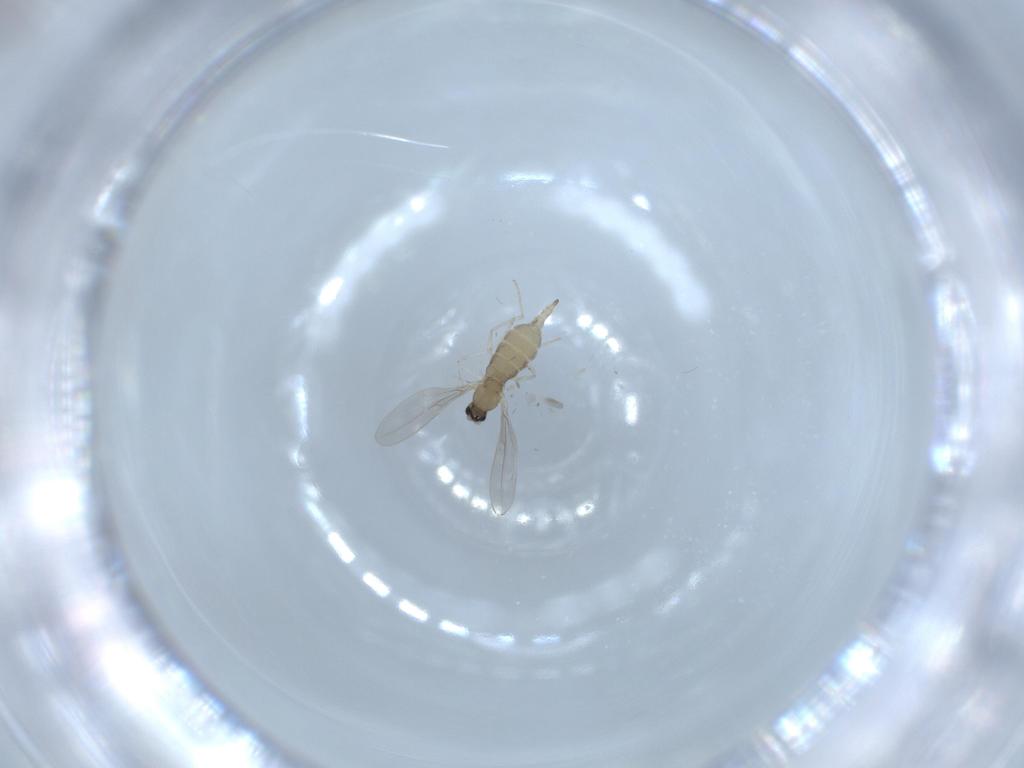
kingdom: Animalia
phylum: Arthropoda
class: Insecta
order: Diptera
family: Cecidomyiidae
